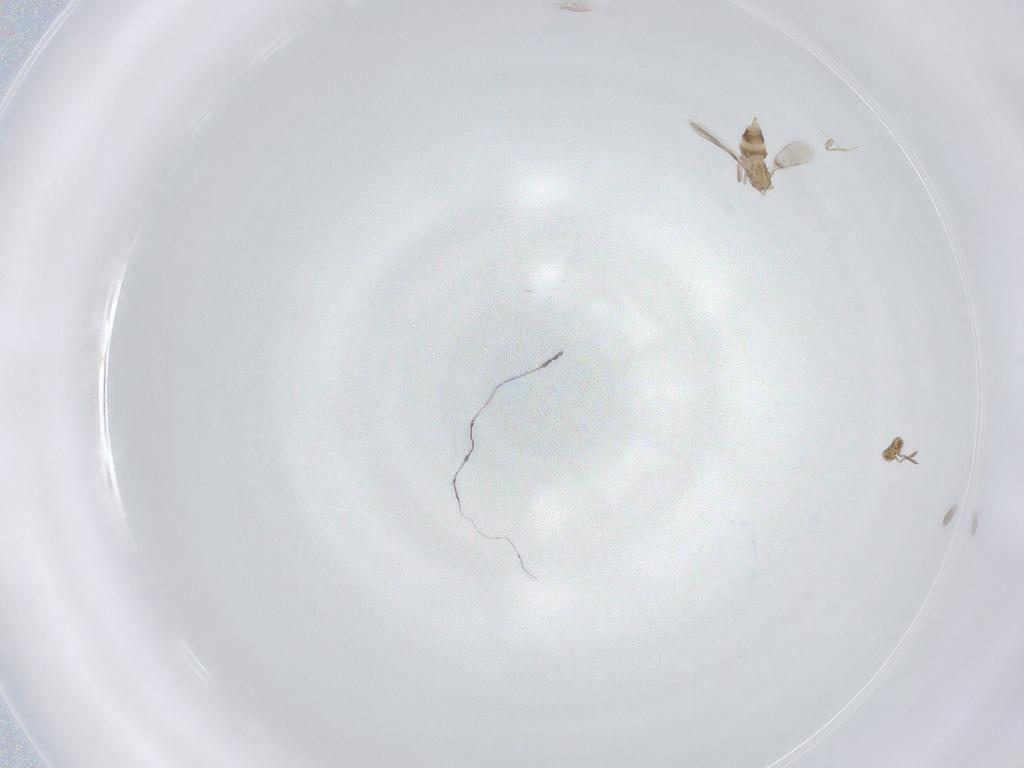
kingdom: Animalia
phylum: Arthropoda
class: Insecta
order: Hymenoptera
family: Aphelinidae
